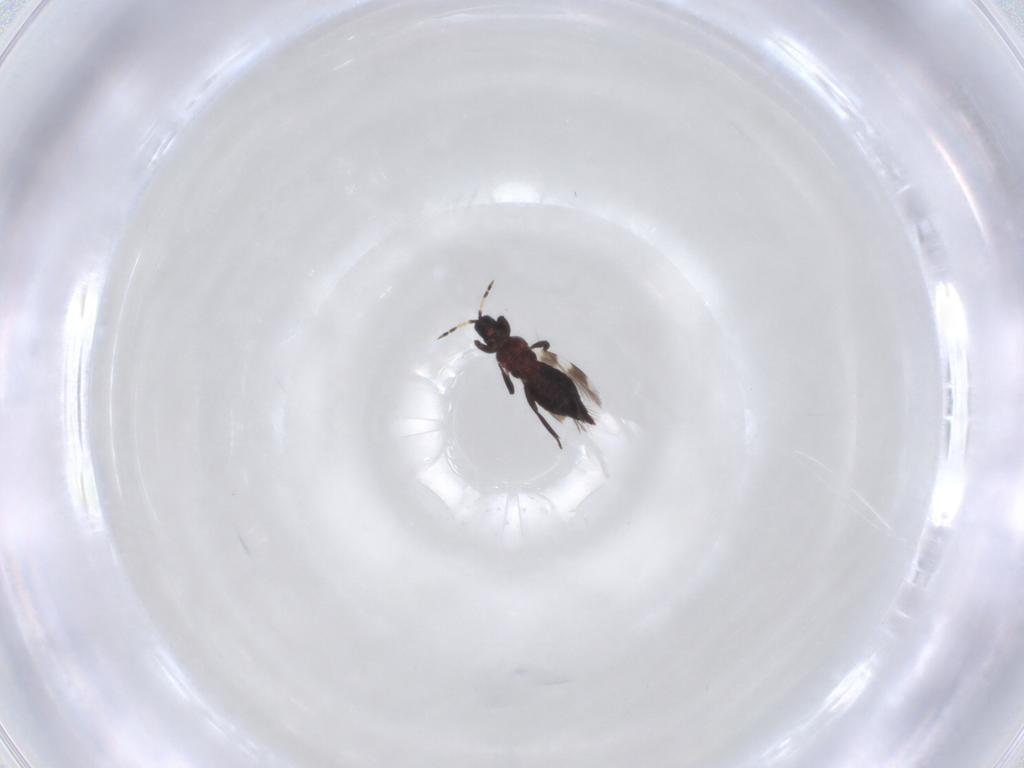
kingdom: Animalia
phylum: Arthropoda
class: Insecta
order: Thysanoptera
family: Aeolothripidae
